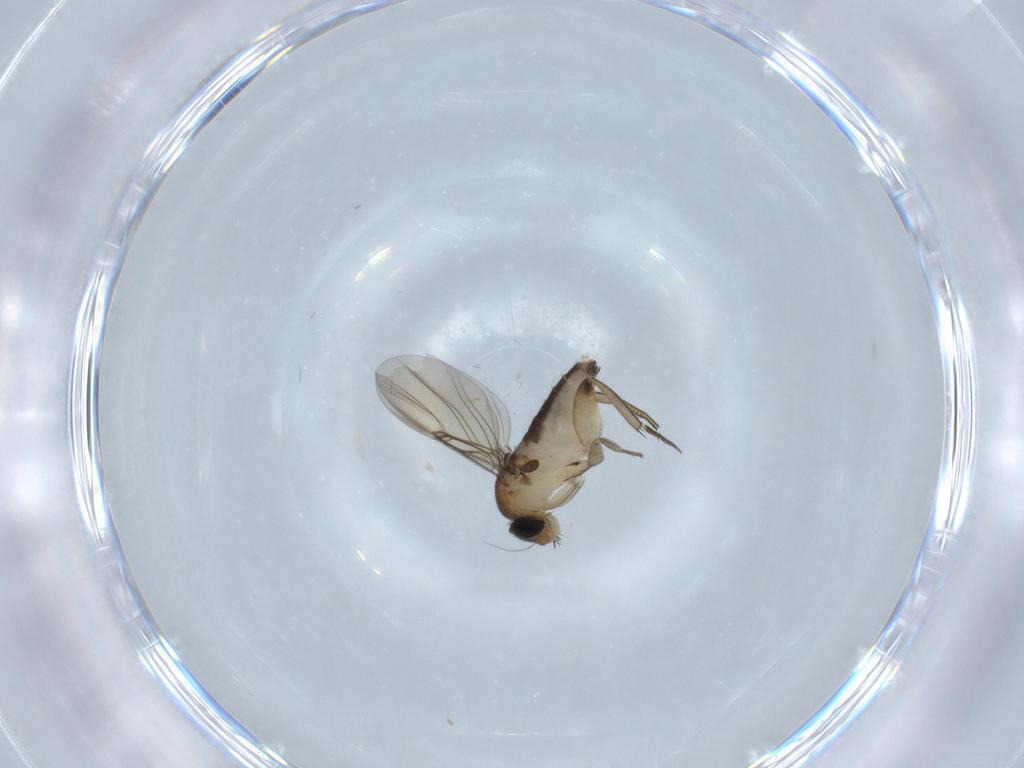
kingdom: Animalia
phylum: Arthropoda
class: Insecta
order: Diptera
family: Phoridae
